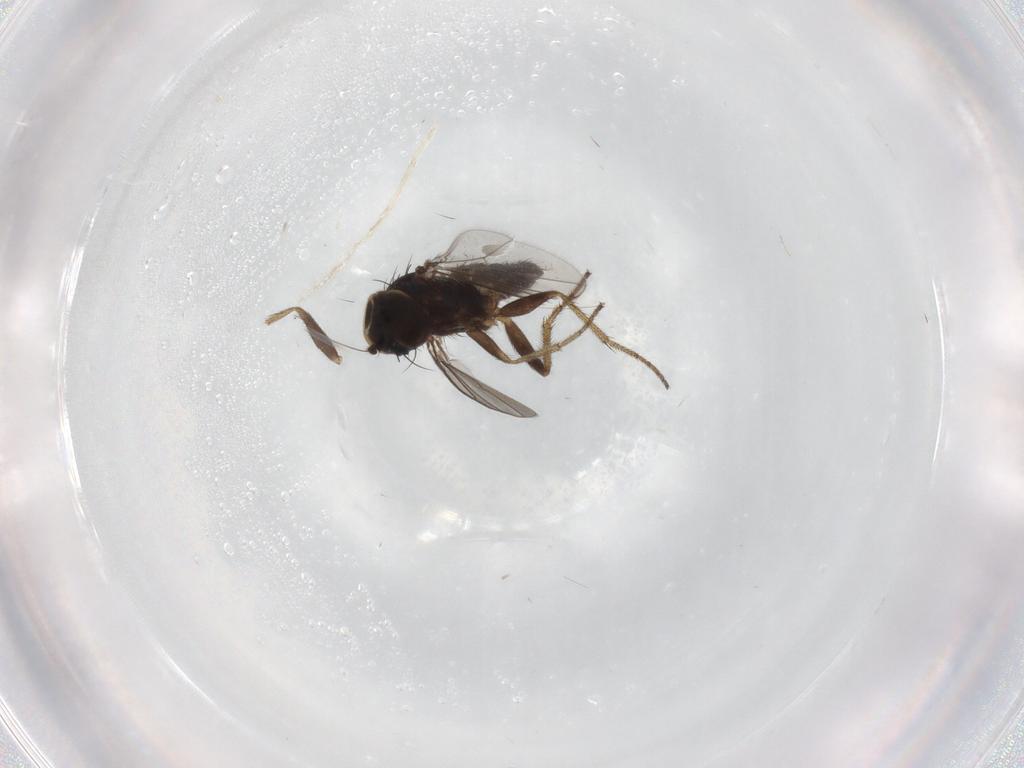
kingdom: Animalia
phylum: Arthropoda
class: Insecta
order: Diptera
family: Dolichopodidae
